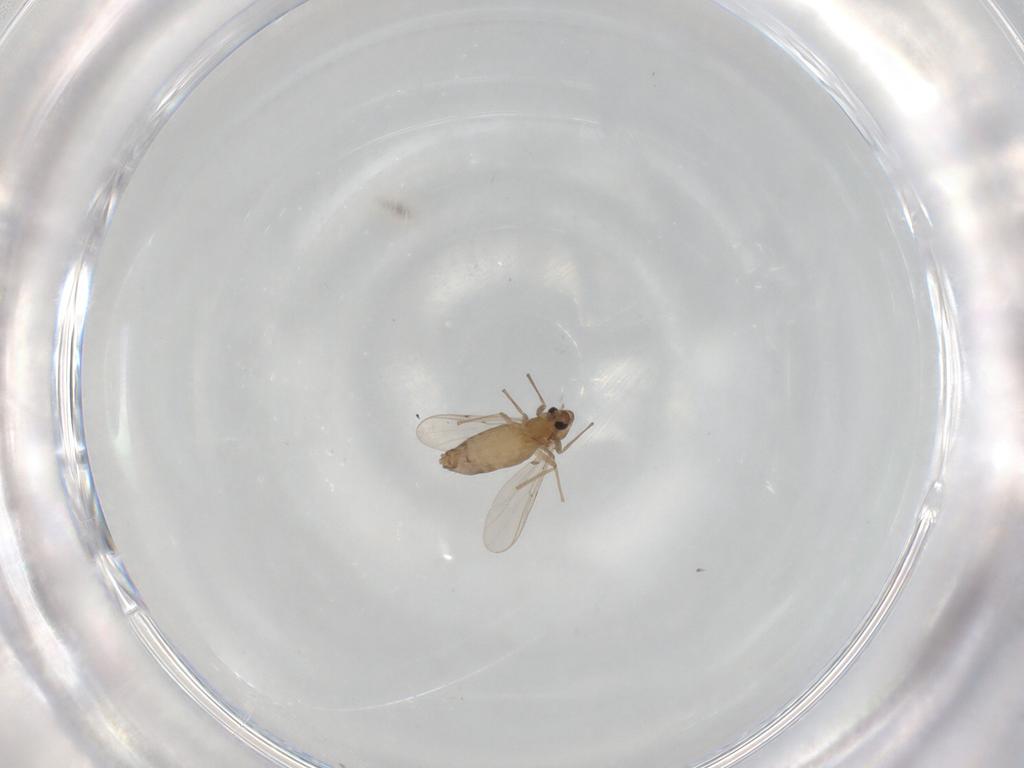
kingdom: Animalia
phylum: Arthropoda
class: Insecta
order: Diptera
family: Chironomidae
